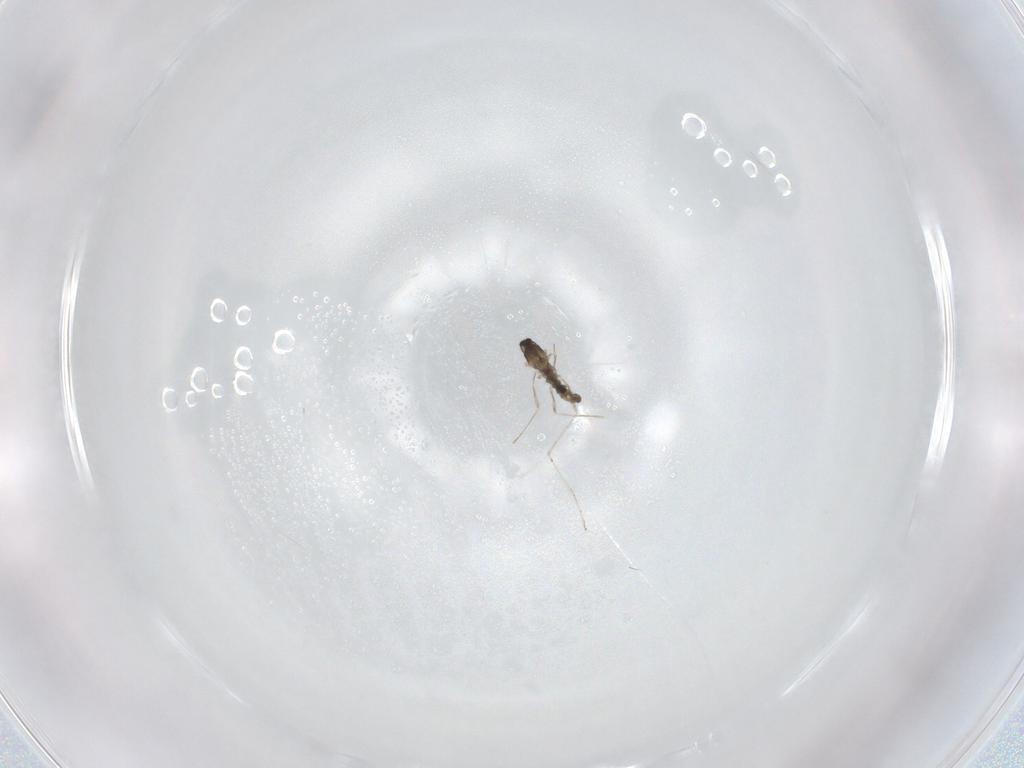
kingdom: Animalia
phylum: Arthropoda
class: Insecta
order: Diptera
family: Cecidomyiidae
